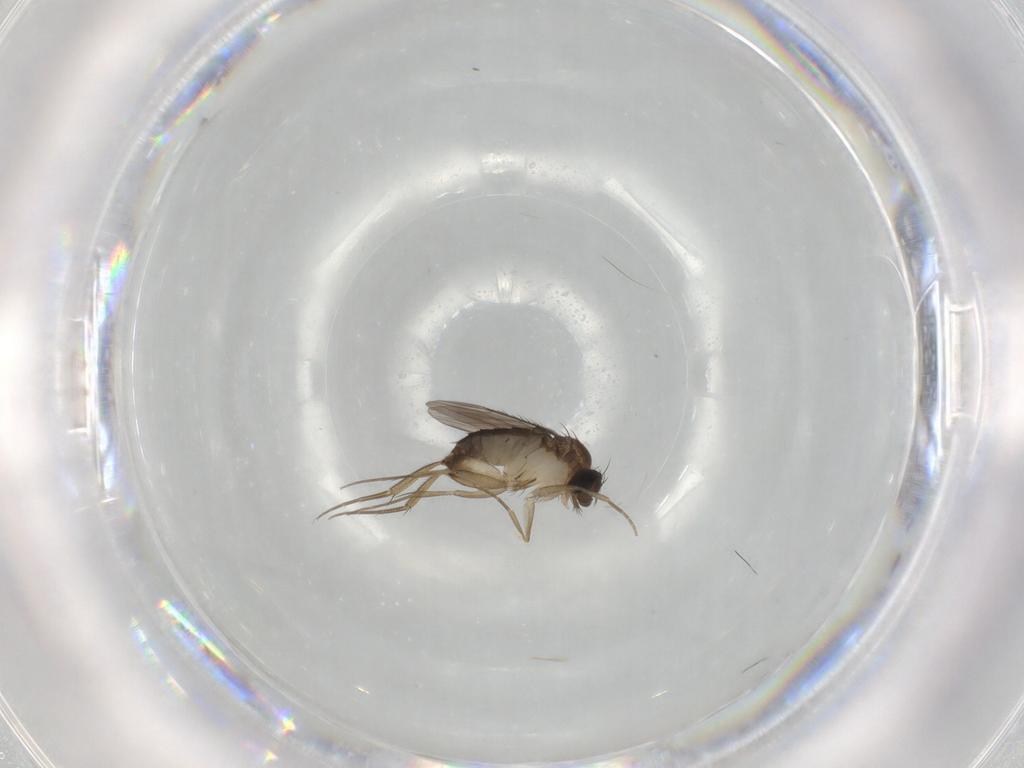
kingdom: Animalia
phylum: Arthropoda
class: Insecta
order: Diptera
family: Phoridae
